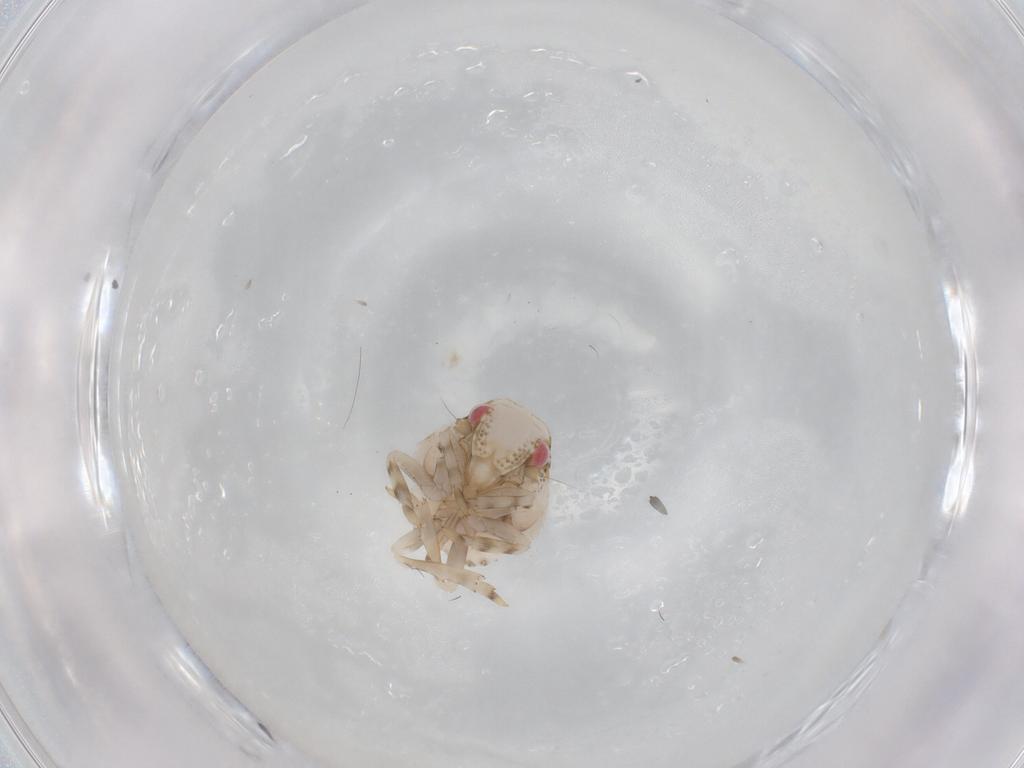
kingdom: Animalia
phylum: Arthropoda
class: Insecta
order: Hemiptera
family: Acanaloniidae
